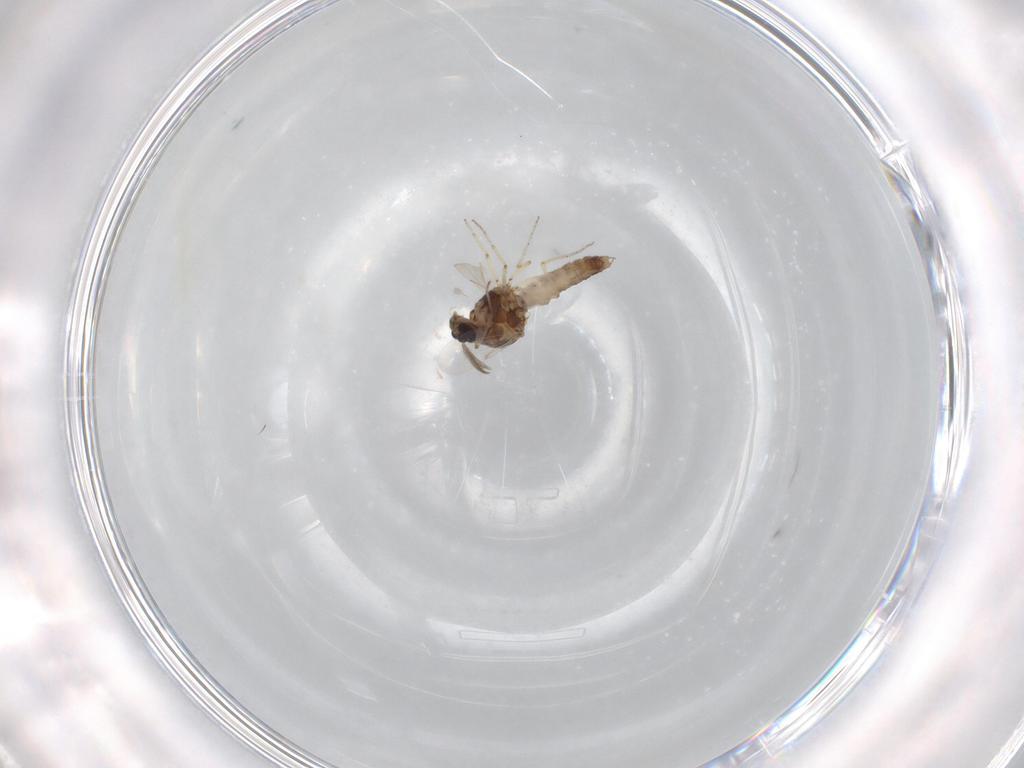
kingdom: Animalia
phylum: Arthropoda
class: Insecta
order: Diptera
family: Ceratopogonidae
